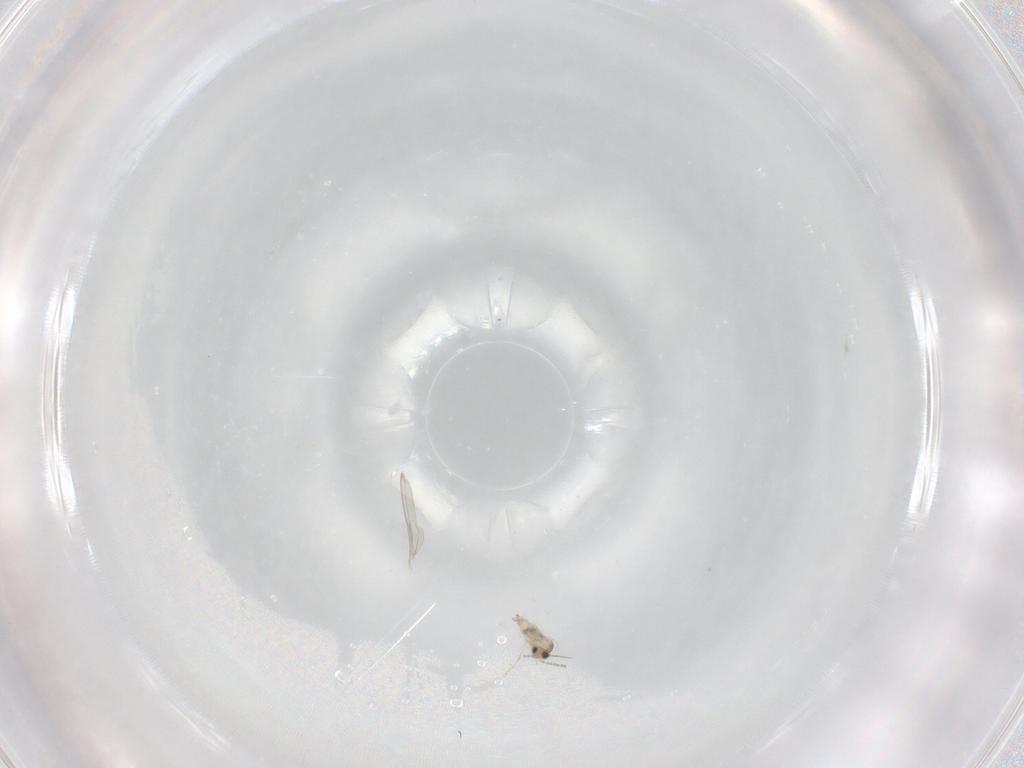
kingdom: Animalia
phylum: Arthropoda
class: Insecta
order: Diptera
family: Cecidomyiidae
